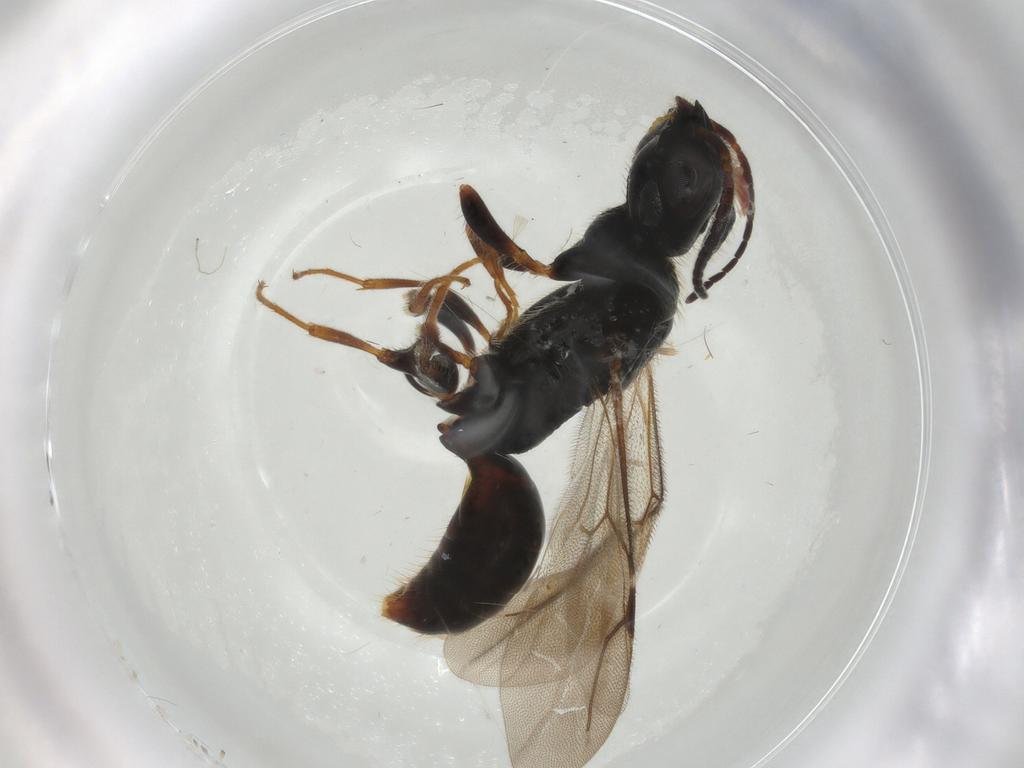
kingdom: Animalia
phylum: Arthropoda
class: Insecta
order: Hymenoptera
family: Bethylidae
